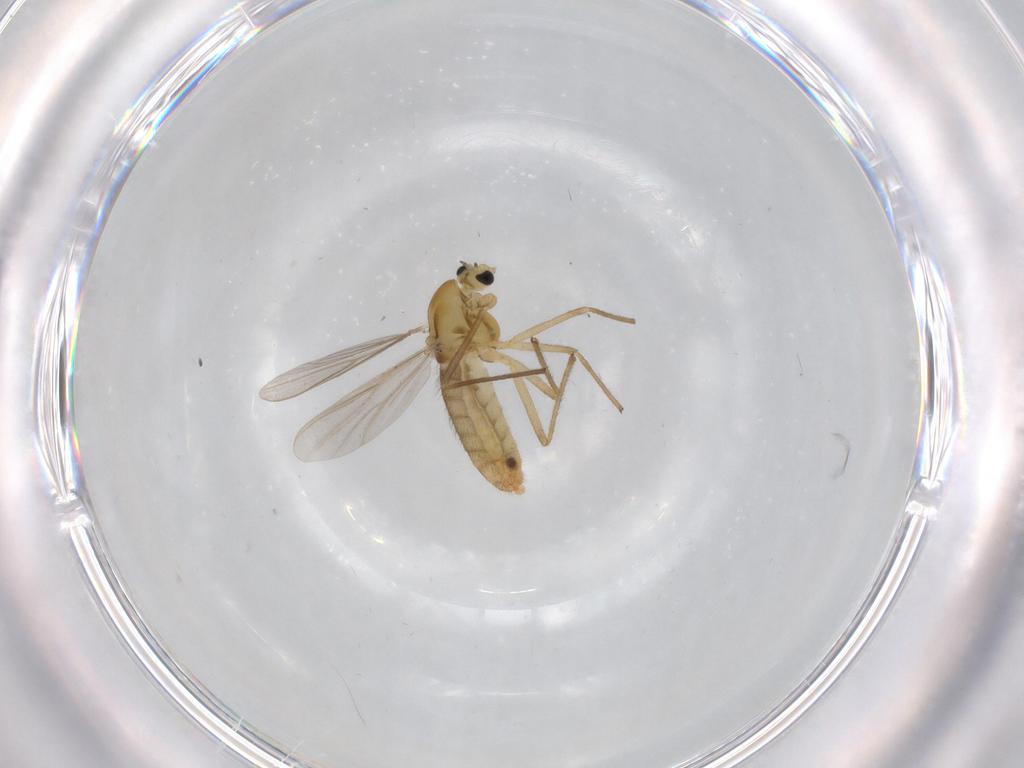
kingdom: Animalia
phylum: Arthropoda
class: Insecta
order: Diptera
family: Chironomidae
